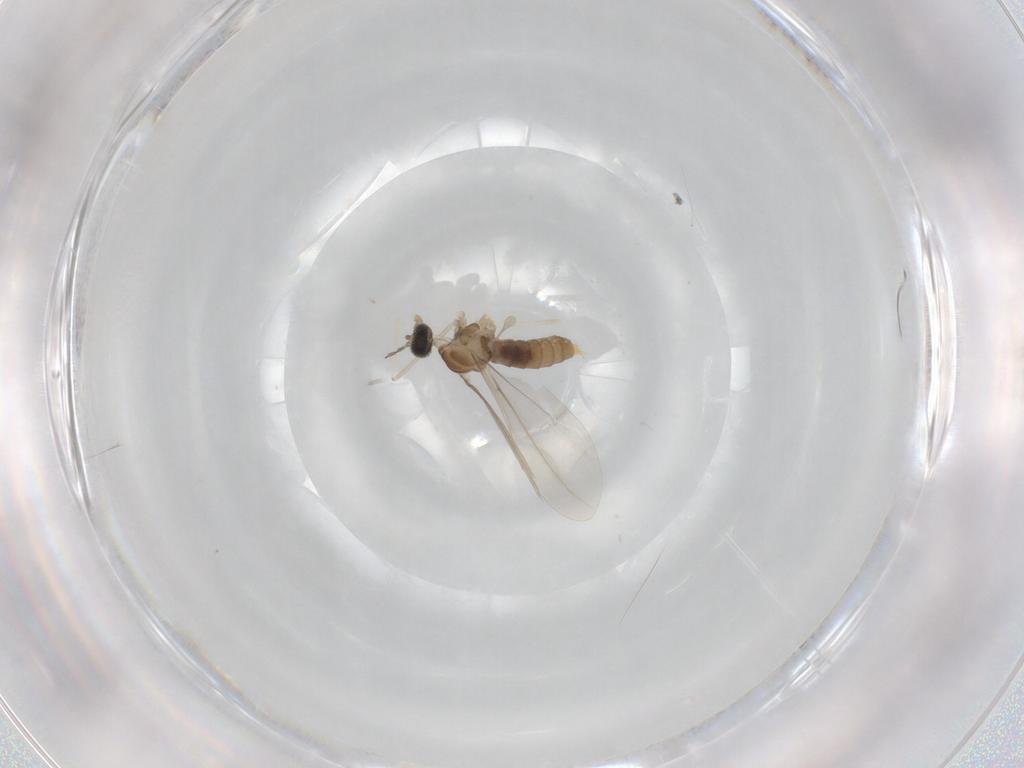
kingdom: Animalia
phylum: Arthropoda
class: Insecta
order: Diptera
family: Cecidomyiidae
